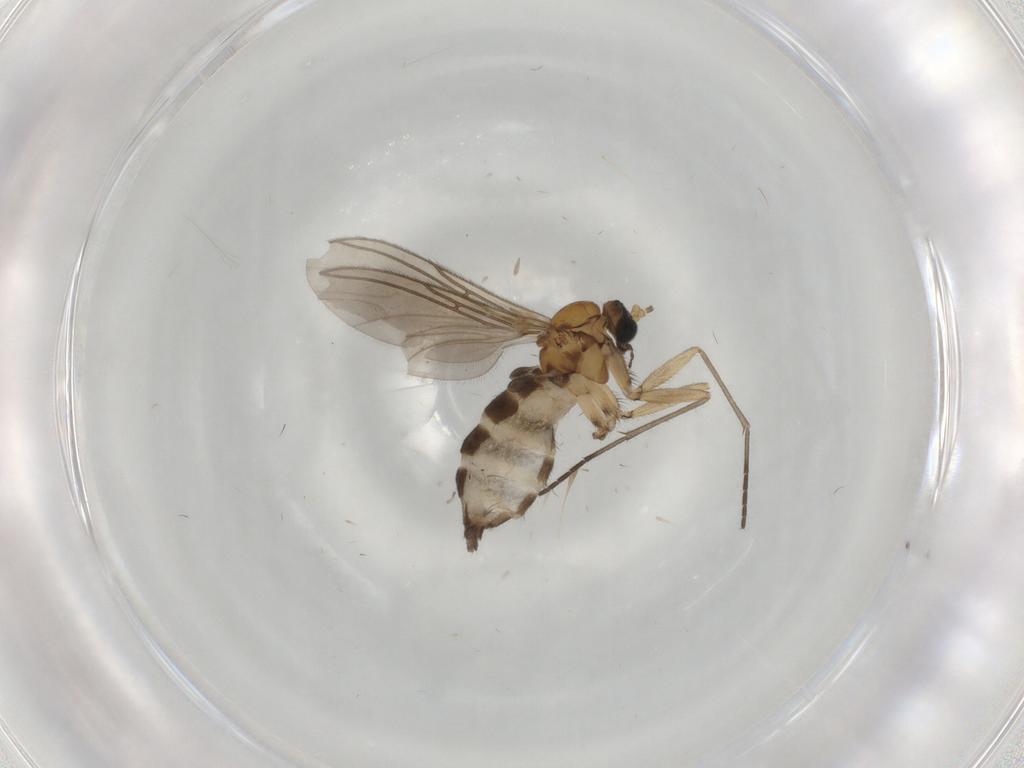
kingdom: Animalia
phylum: Arthropoda
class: Insecta
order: Diptera
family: Sciaridae
